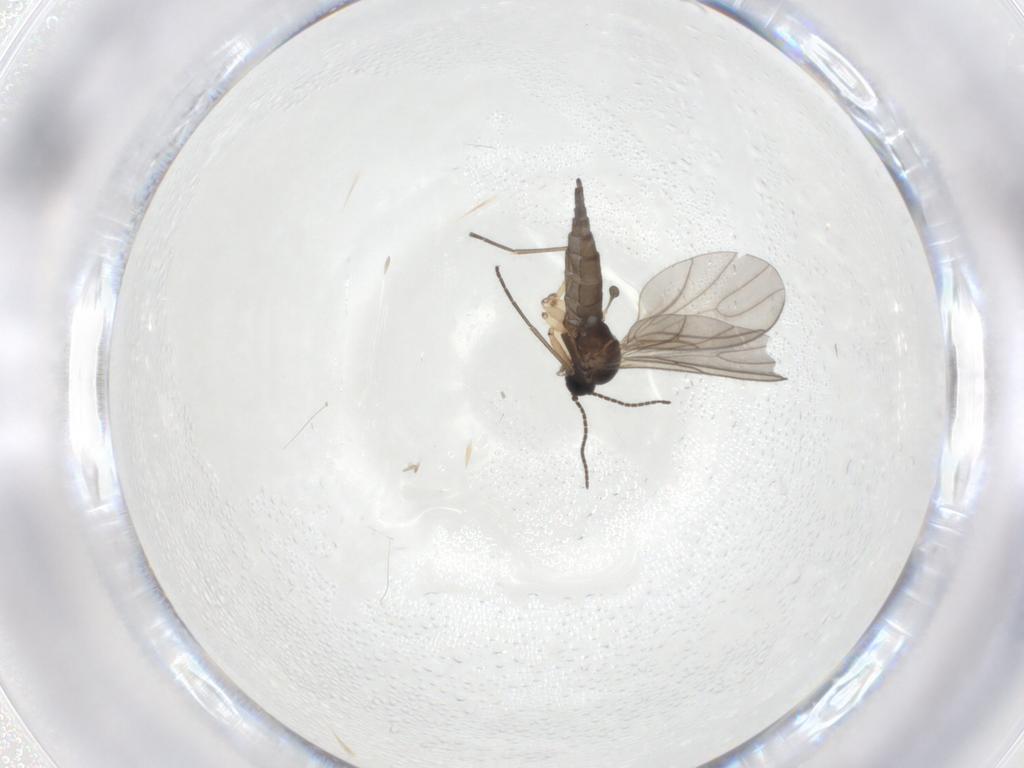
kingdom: Animalia
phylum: Arthropoda
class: Insecta
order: Diptera
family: Sciaridae
